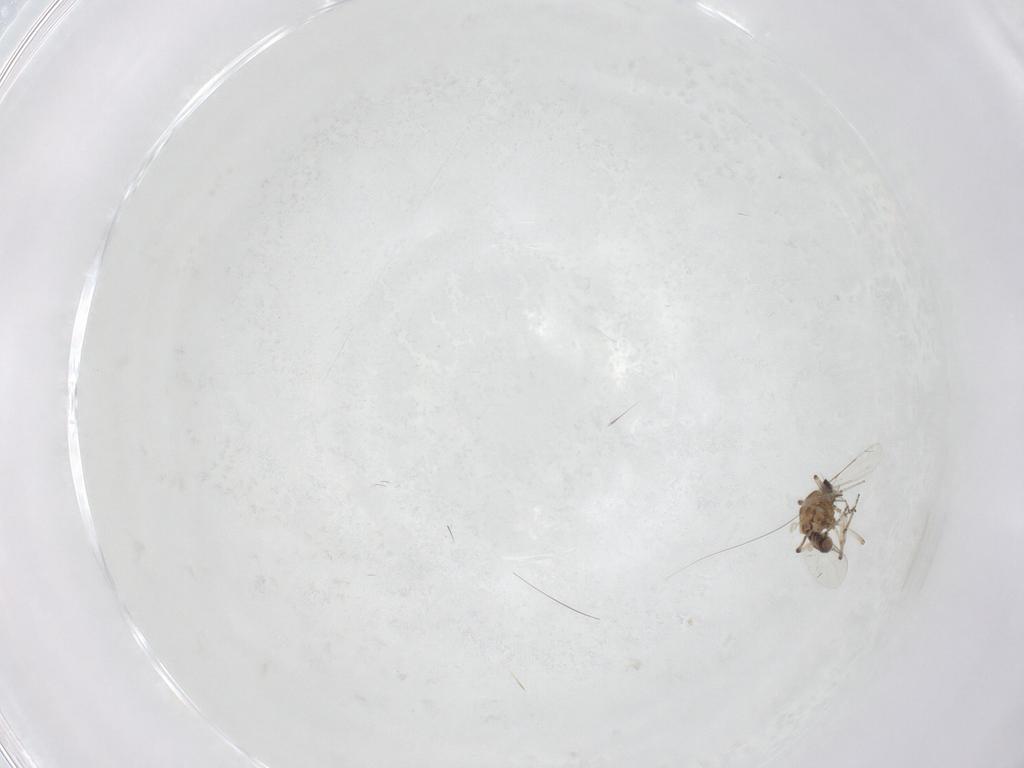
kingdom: Animalia
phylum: Arthropoda
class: Insecta
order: Diptera
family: Ceratopogonidae
